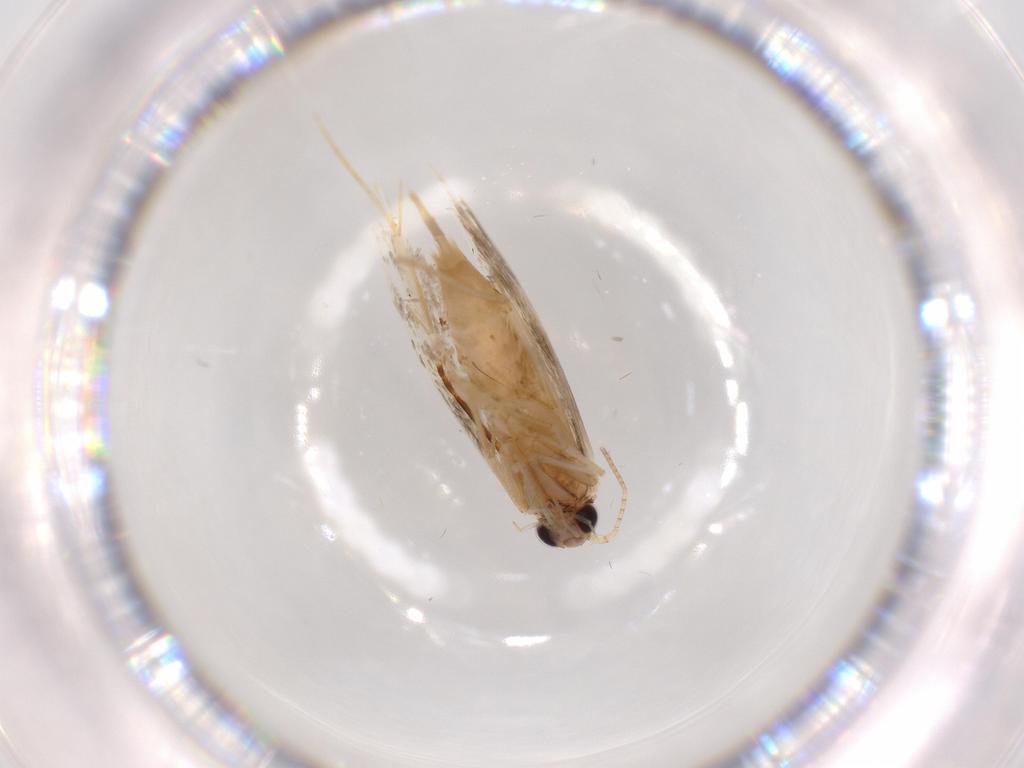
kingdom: Animalia
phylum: Arthropoda
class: Insecta
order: Lepidoptera
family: Tineidae
